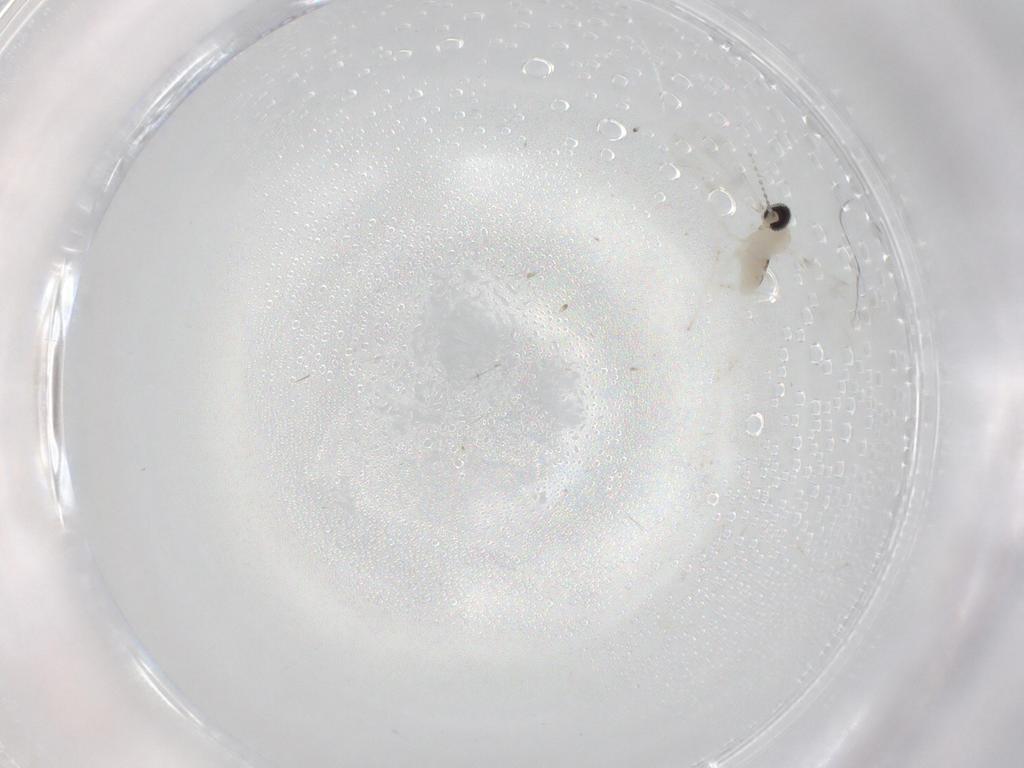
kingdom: Animalia
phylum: Arthropoda
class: Insecta
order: Diptera
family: Cecidomyiidae
